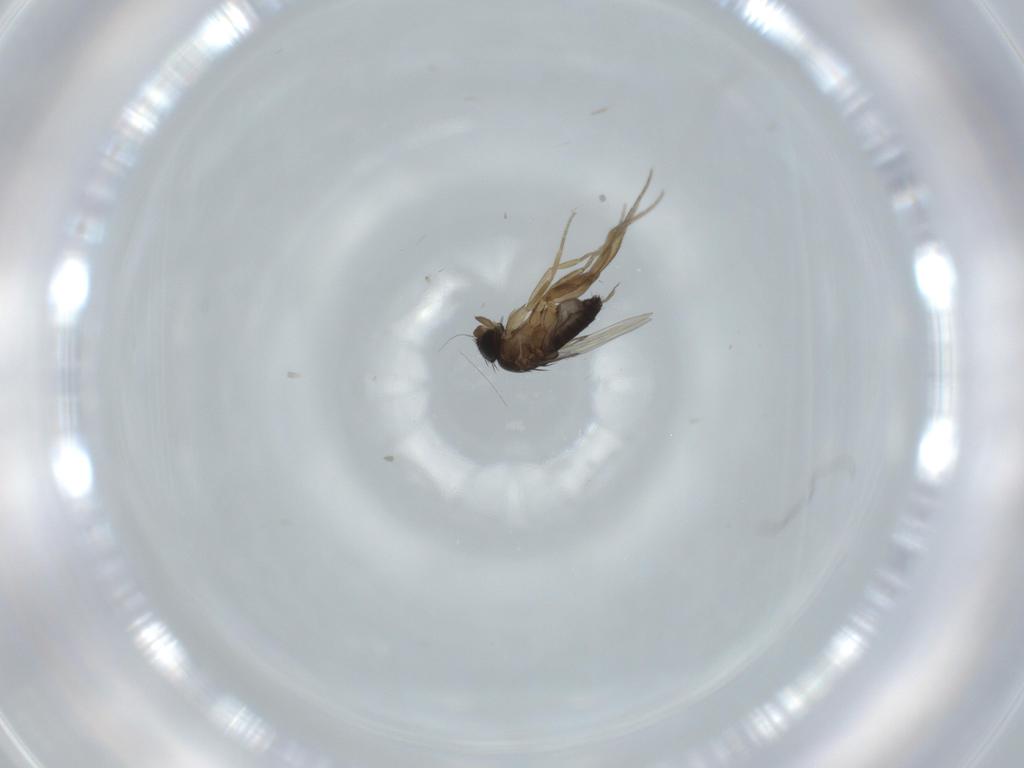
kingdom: Animalia
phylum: Arthropoda
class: Insecta
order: Diptera
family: Phoridae
